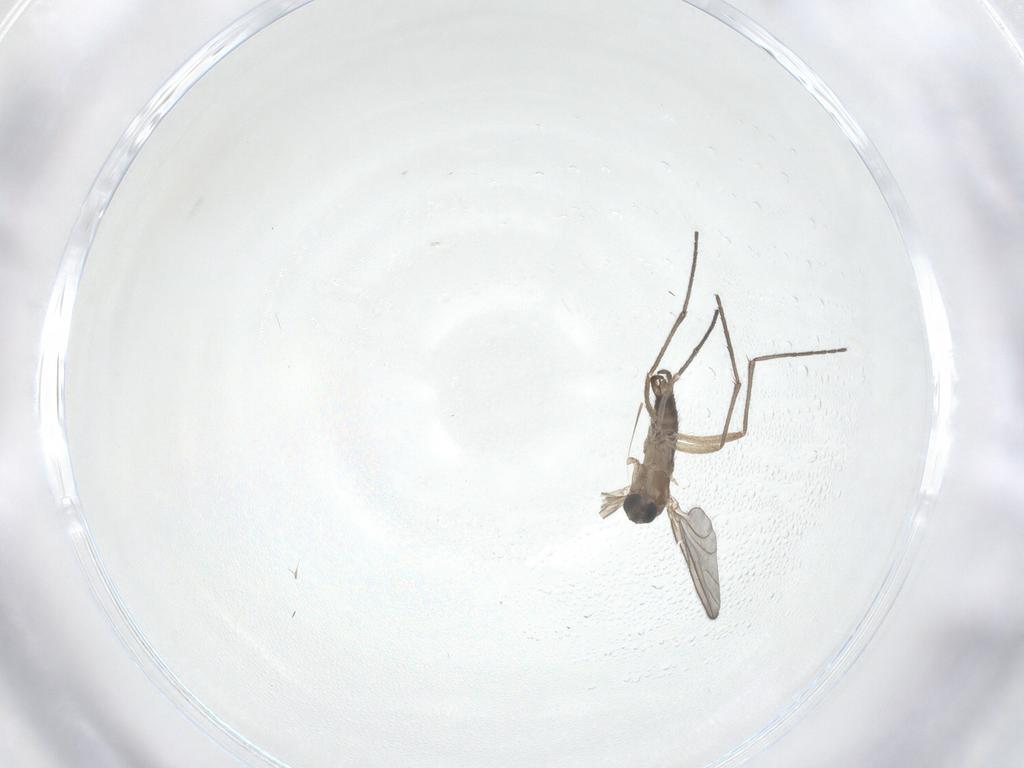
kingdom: Animalia
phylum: Arthropoda
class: Insecta
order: Diptera
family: Sciaridae
